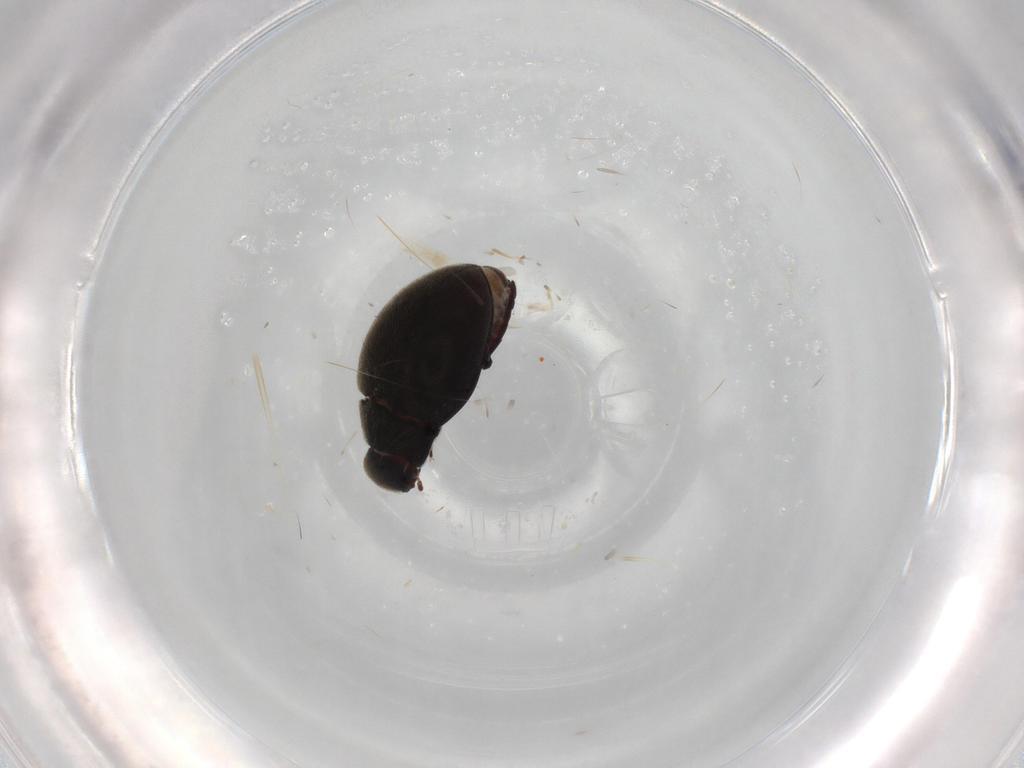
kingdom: Animalia
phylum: Arthropoda
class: Insecta
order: Coleoptera
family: Limnichidae
